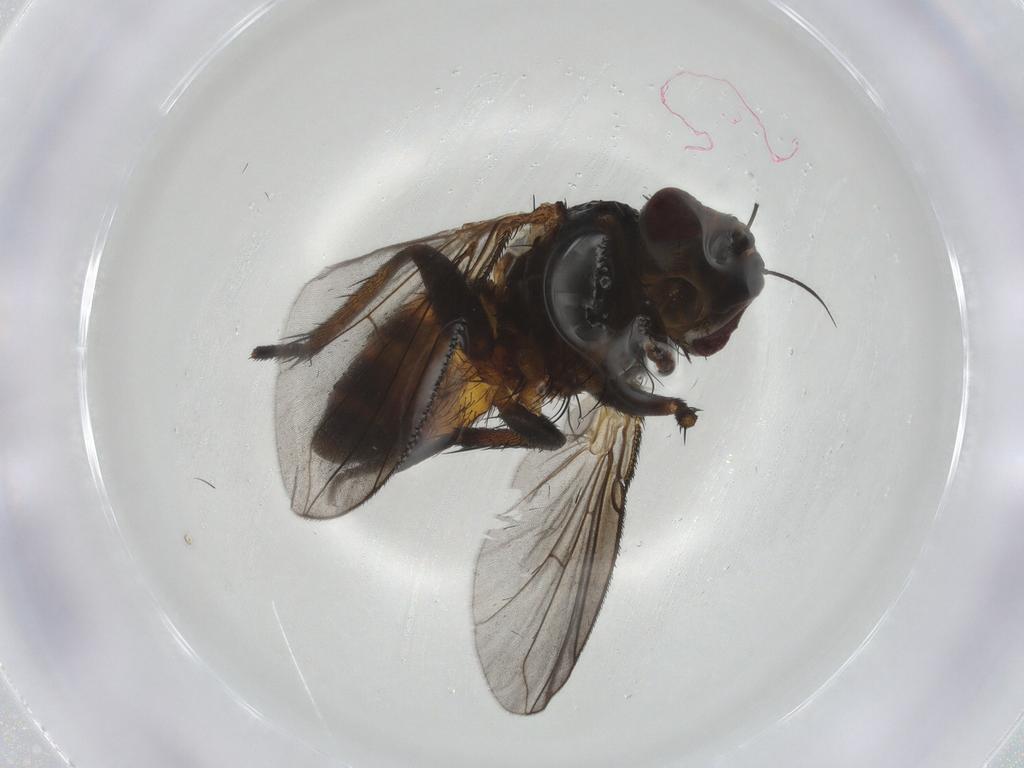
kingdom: Animalia
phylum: Arthropoda
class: Insecta
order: Diptera
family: Tachinidae
